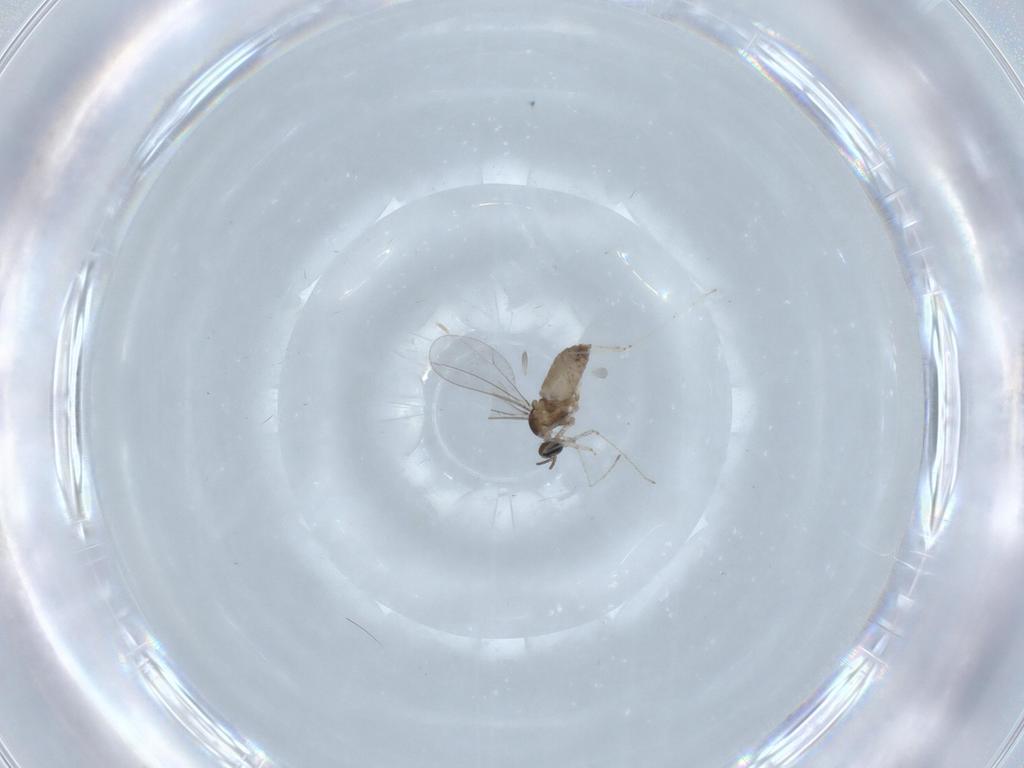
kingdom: Animalia
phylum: Arthropoda
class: Insecta
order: Diptera
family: Cecidomyiidae
